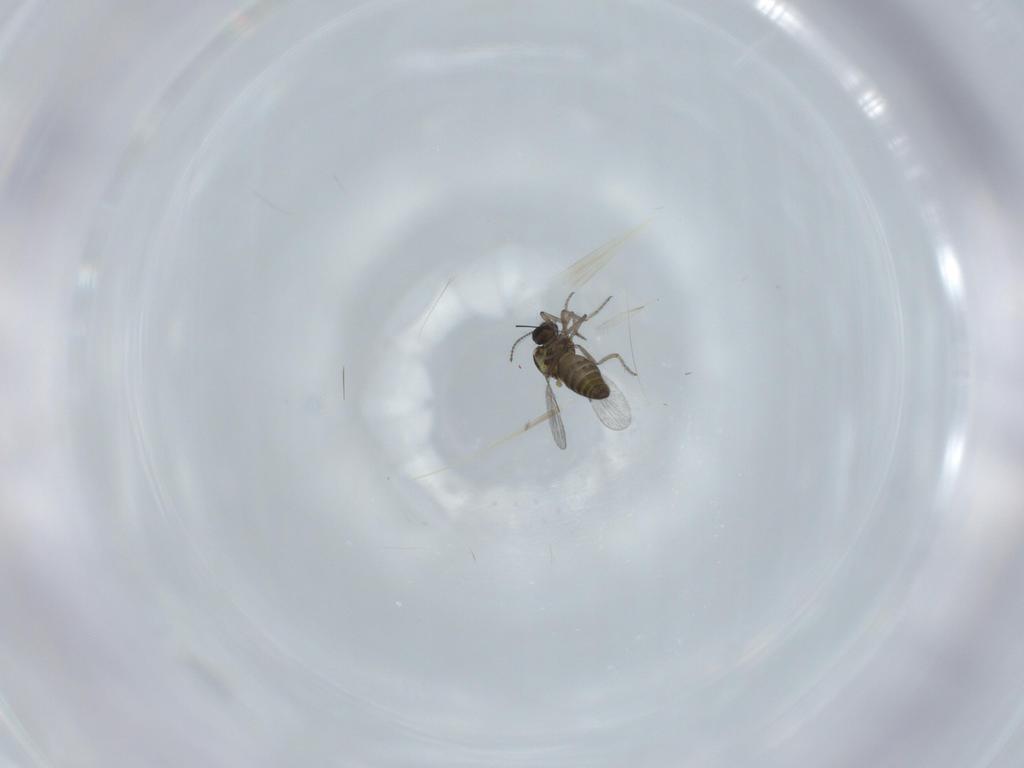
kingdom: Animalia
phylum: Arthropoda
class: Insecta
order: Diptera
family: Ceratopogonidae
